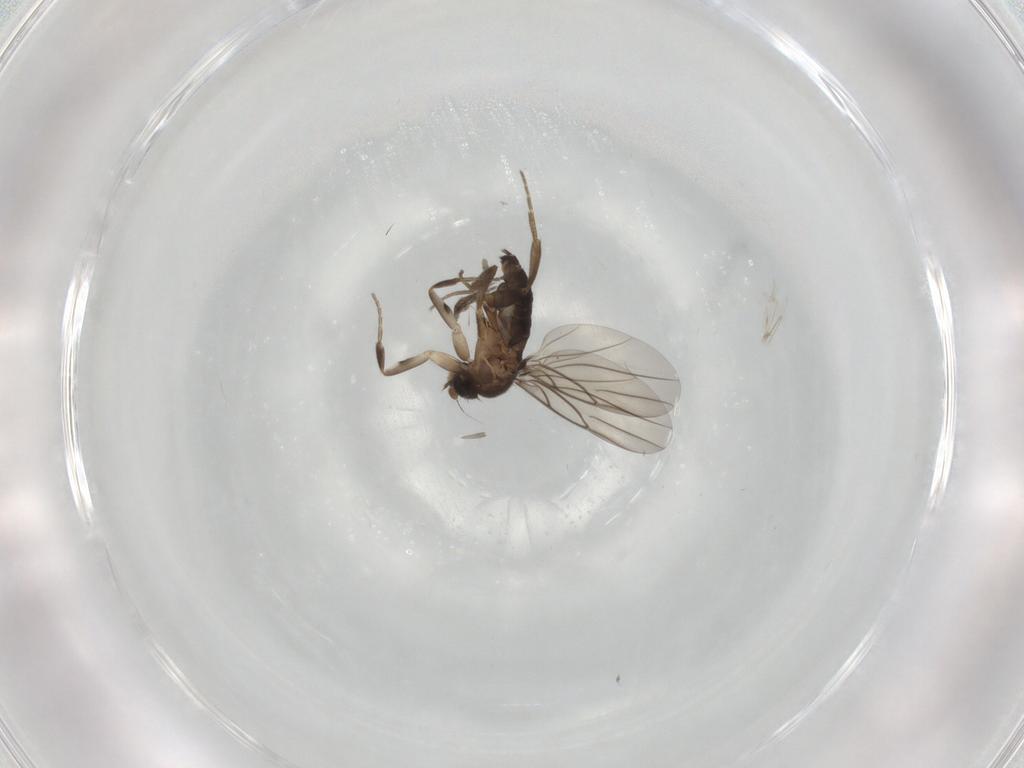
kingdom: Animalia
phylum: Arthropoda
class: Insecta
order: Diptera
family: Phoridae
